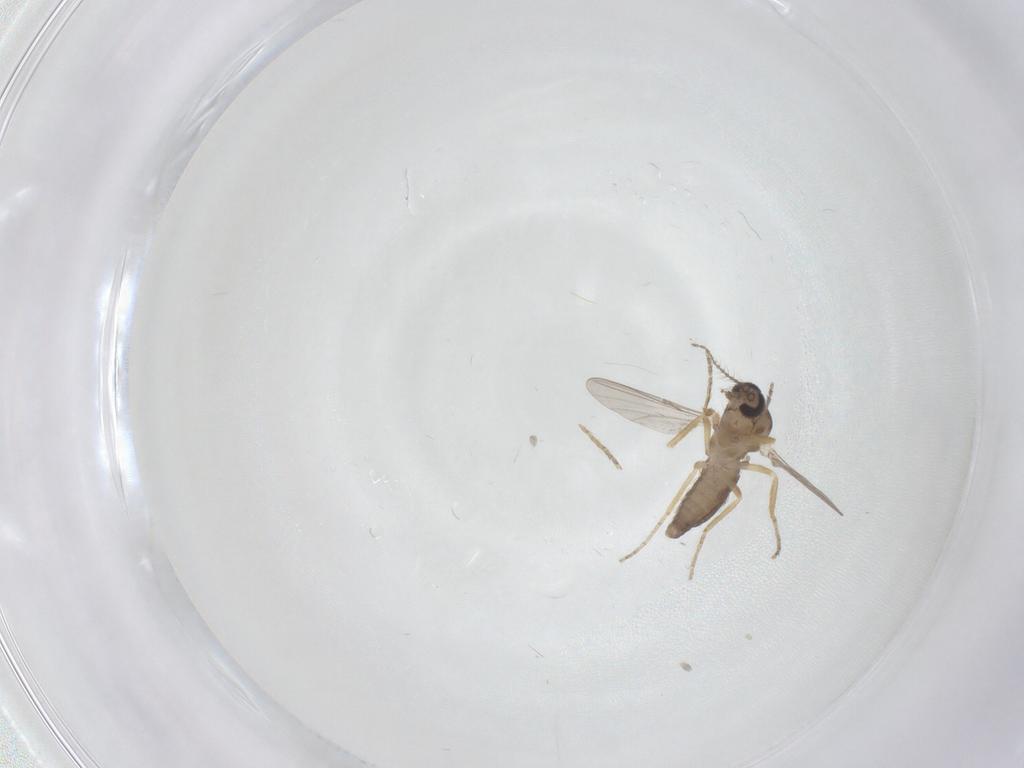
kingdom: Animalia
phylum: Arthropoda
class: Insecta
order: Diptera
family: Ceratopogonidae
